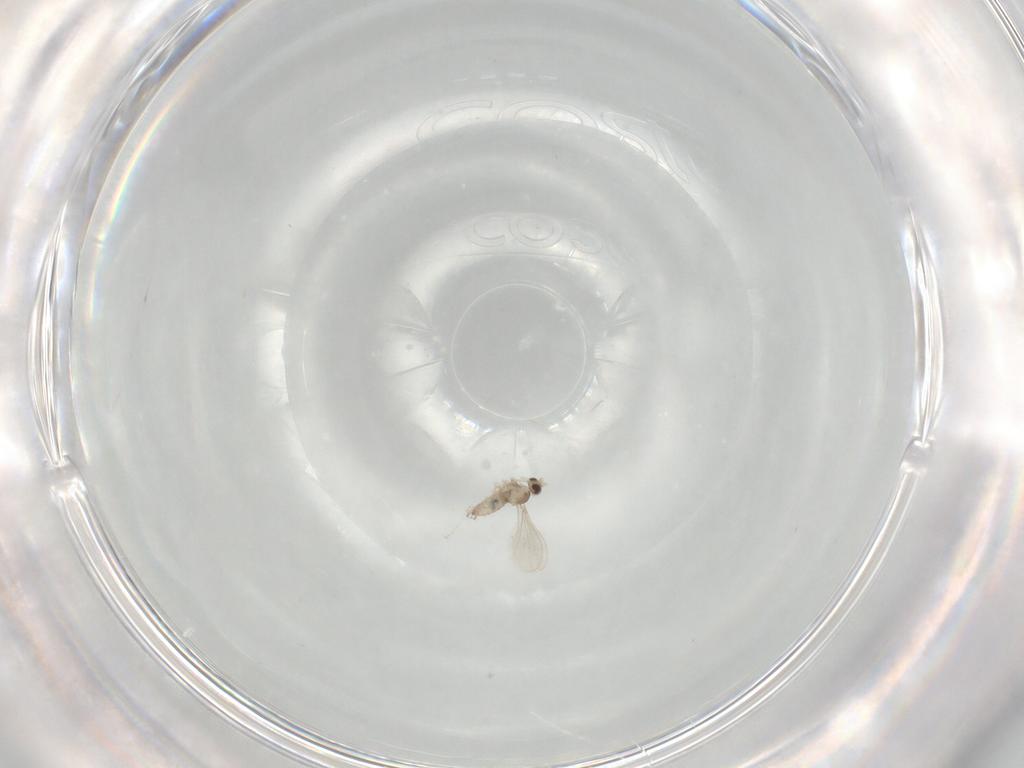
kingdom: Animalia
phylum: Arthropoda
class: Insecta
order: Diptera
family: Cecidomyiidae
